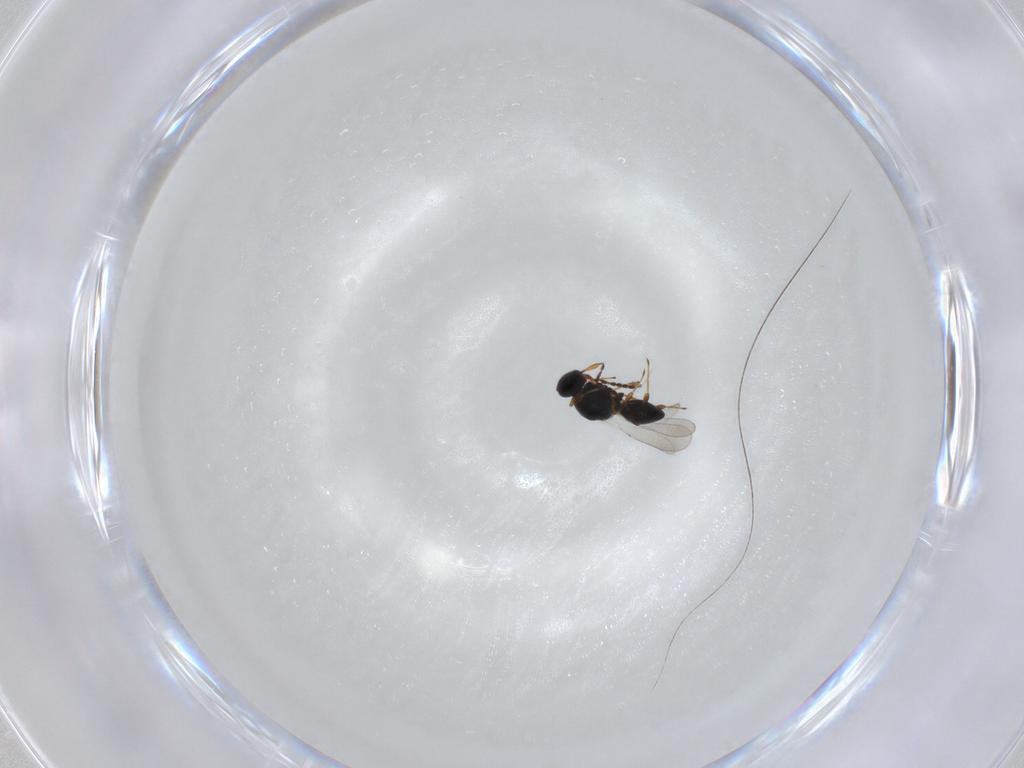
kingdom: Animalia
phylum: Arthropoda
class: Insecta
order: Hymenoptera
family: Platygastridae
